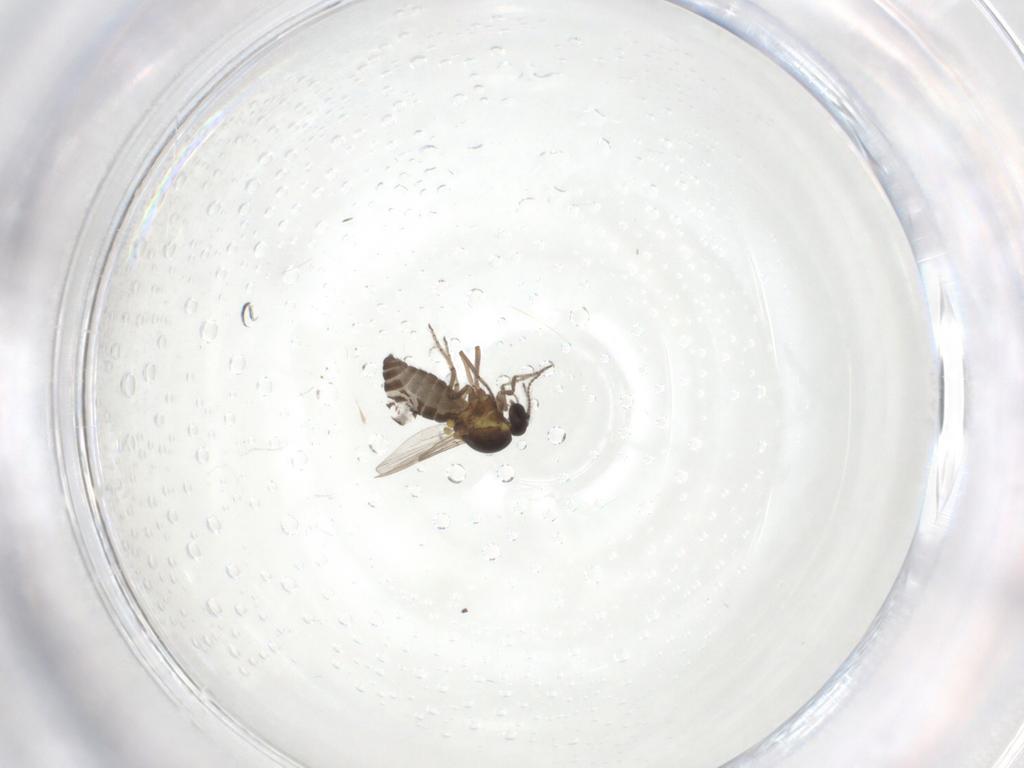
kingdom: Animalia
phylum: Arthropoda
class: Insecta
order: Diptera
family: Ceratopogonidae
